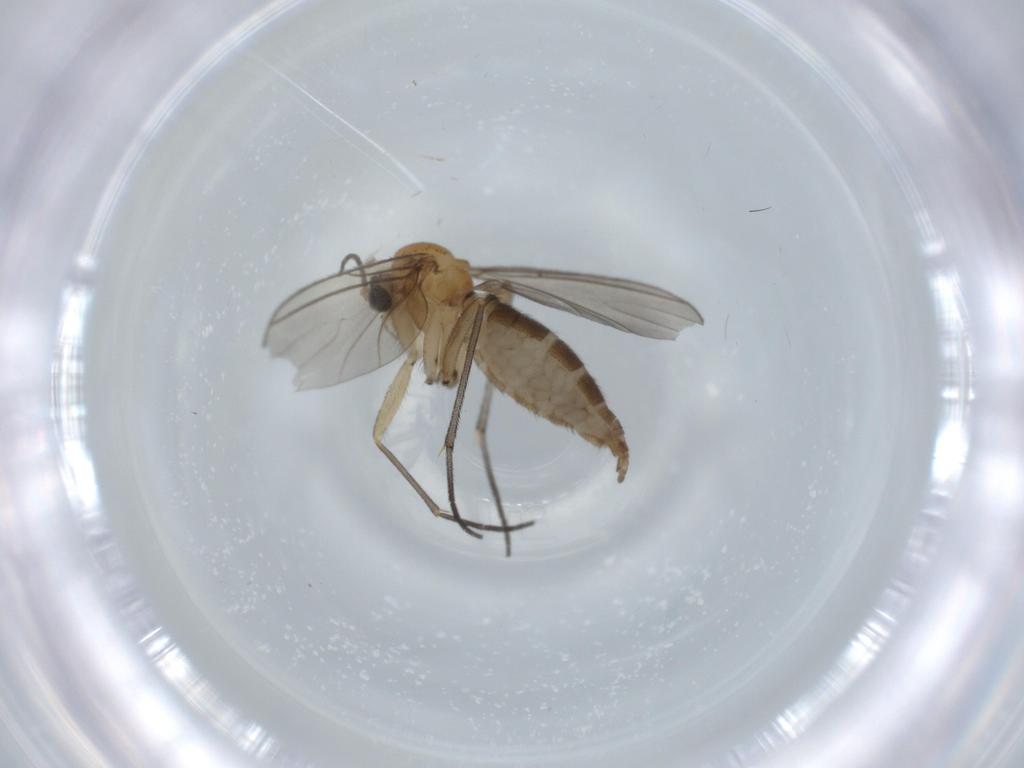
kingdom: Animalia
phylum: Arthropoda
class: Insecta
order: Diptera
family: Sciaridae
